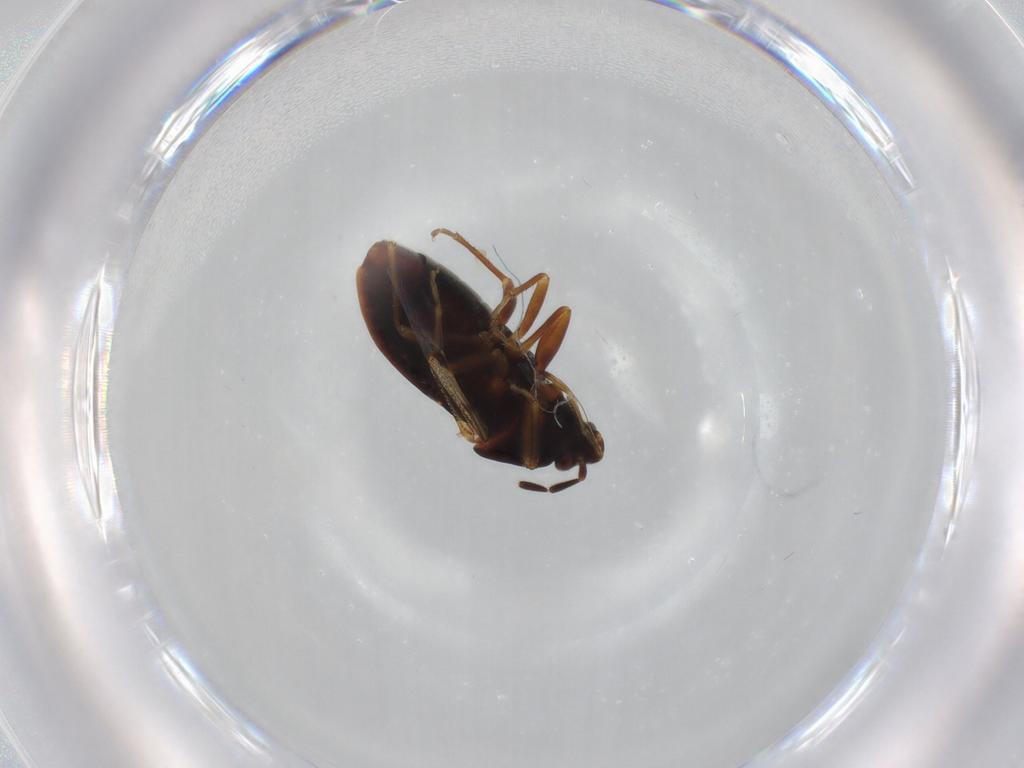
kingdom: Animalia
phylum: Arthropoda
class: Insecta
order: Hemiptera
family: Rhyparochromidae
